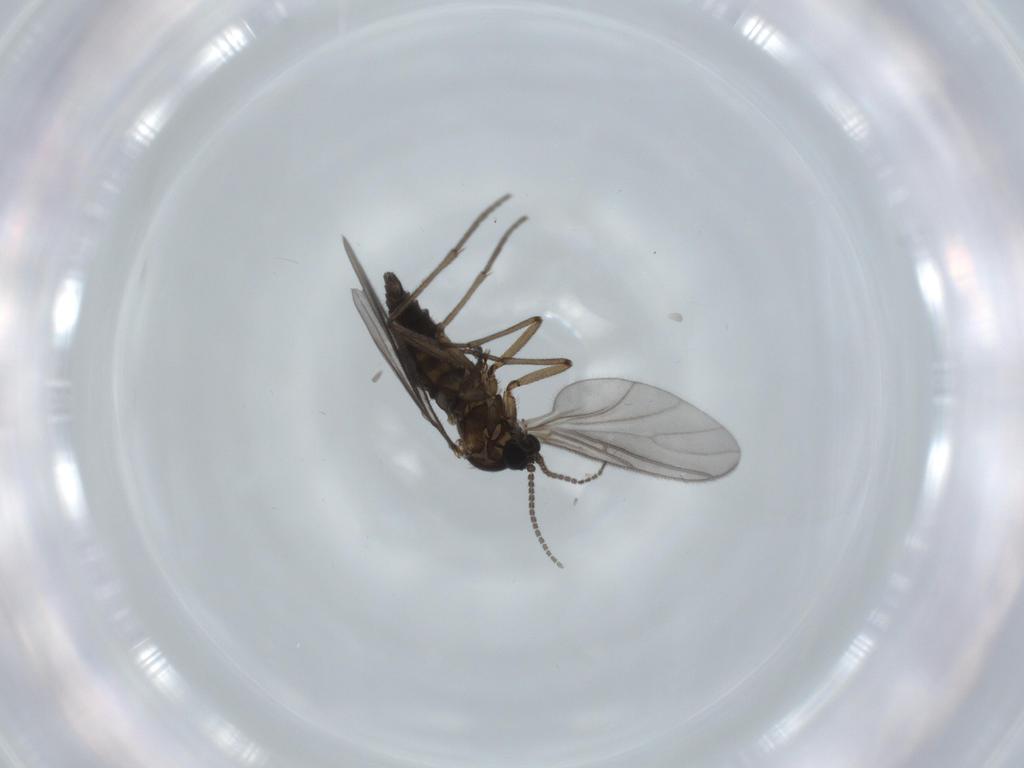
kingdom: Animalia
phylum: Arthropoda
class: Insecta
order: Diptera
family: Sciaridae
